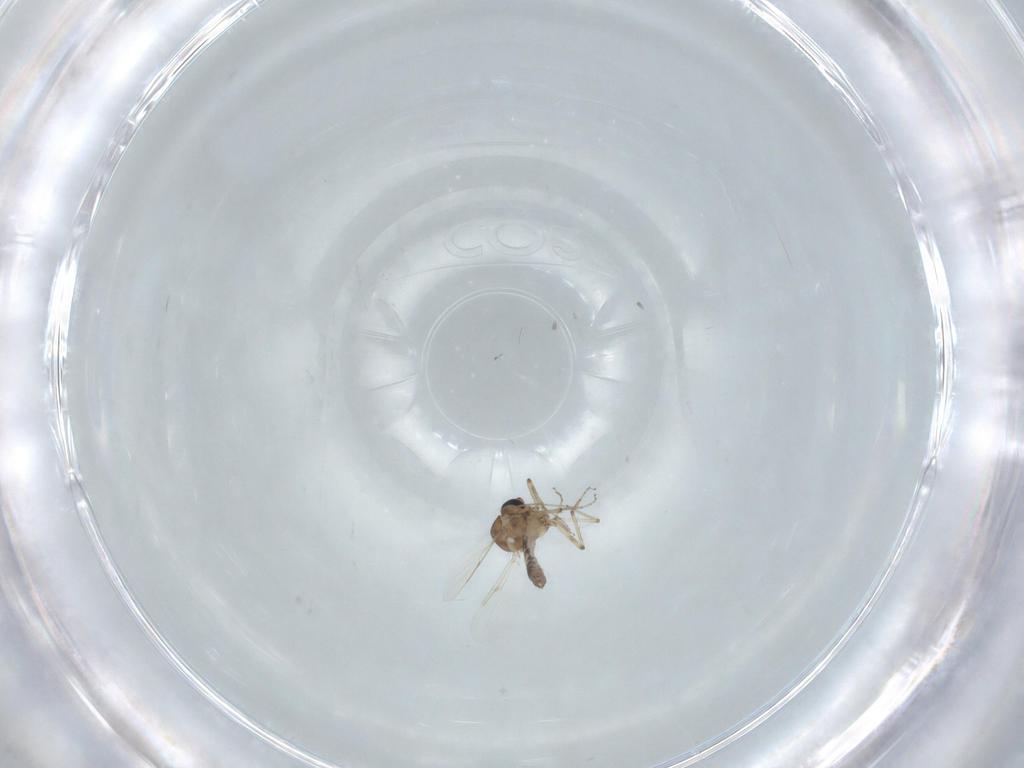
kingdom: Animalia
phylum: Arthropoda
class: Insecta
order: Diptera
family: Ceratopogonidae
